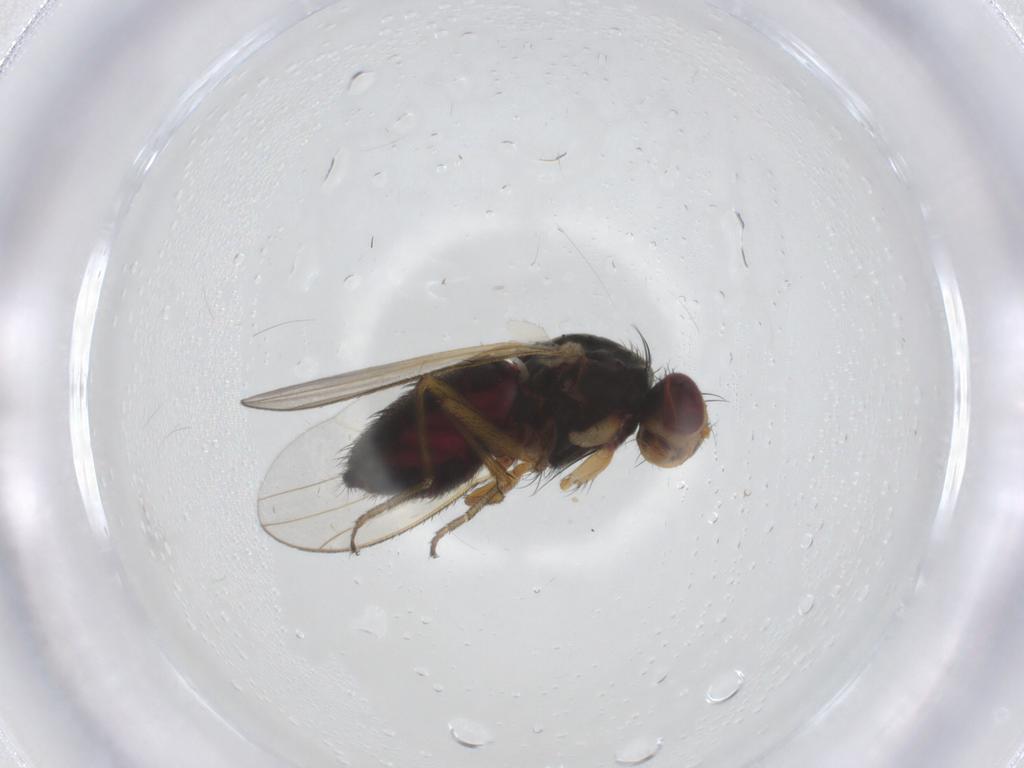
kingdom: Animalia
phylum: Arthropoda
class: Insecta
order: Diptera
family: Heleomyzidae
